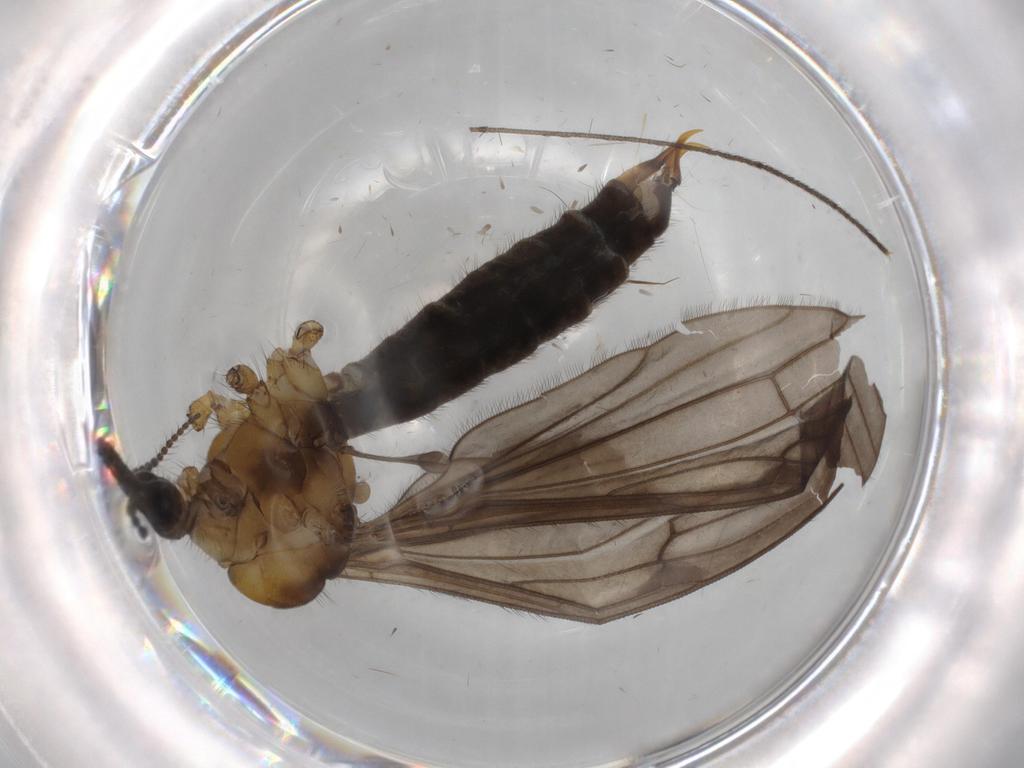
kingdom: Animalia
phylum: Arthropoda
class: Insecta
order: Diptera
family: Limoniidae
